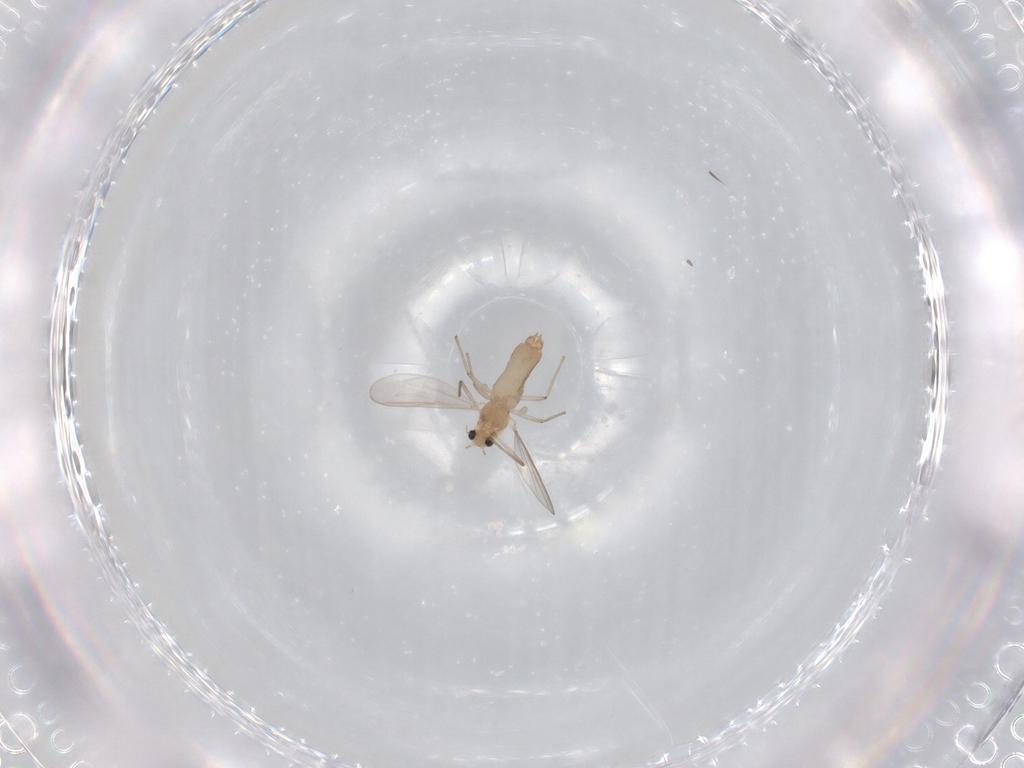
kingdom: Animalia
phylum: Arthropoda
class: Insecta
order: Diptera
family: Chironomidae
